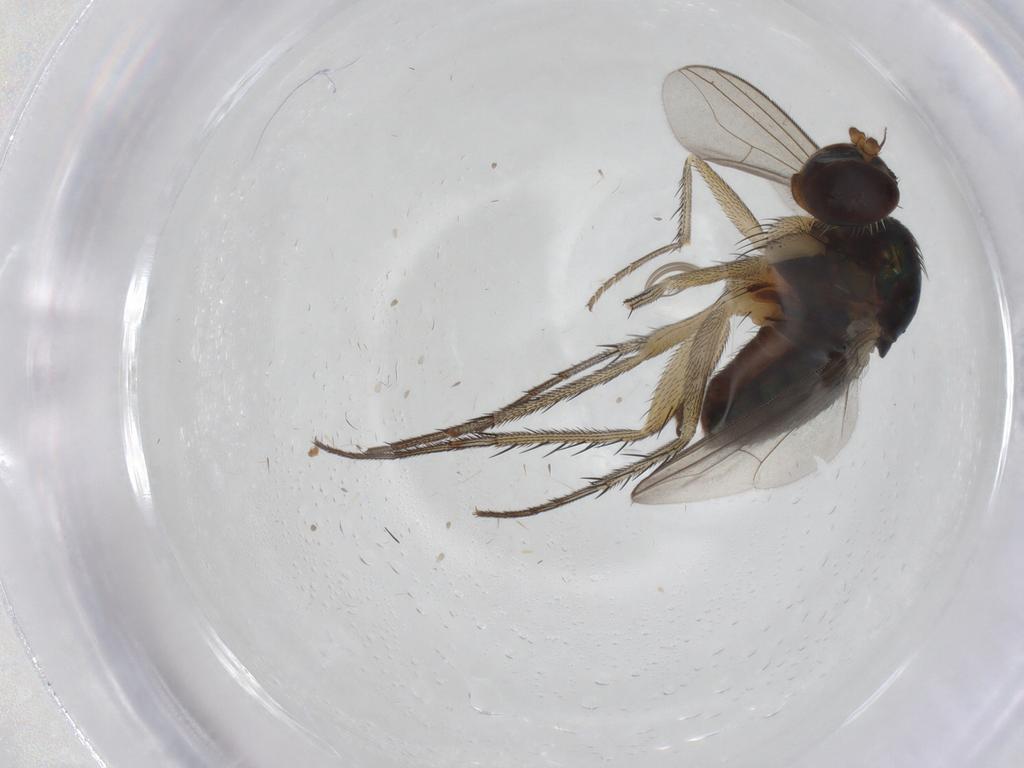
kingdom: Animalia
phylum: Arthropoda
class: Insecta
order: Diptera
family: Dolichopodidae
